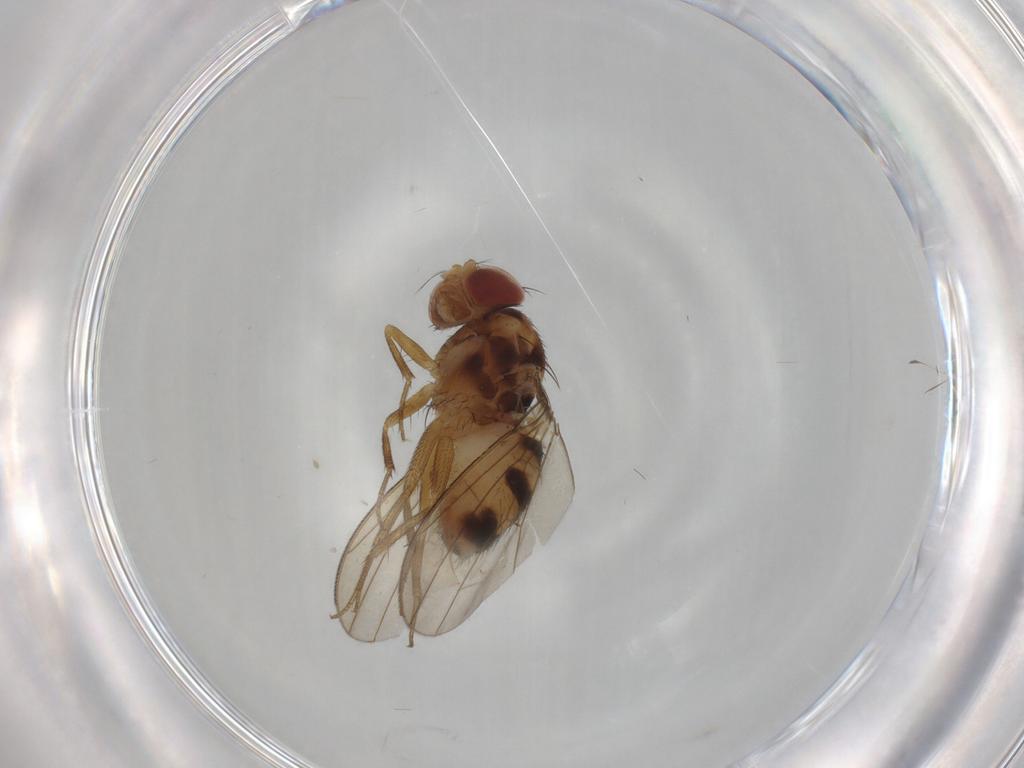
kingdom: Animalia
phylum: Arthropoda
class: Insecta
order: Diptera
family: Drosophilidae
